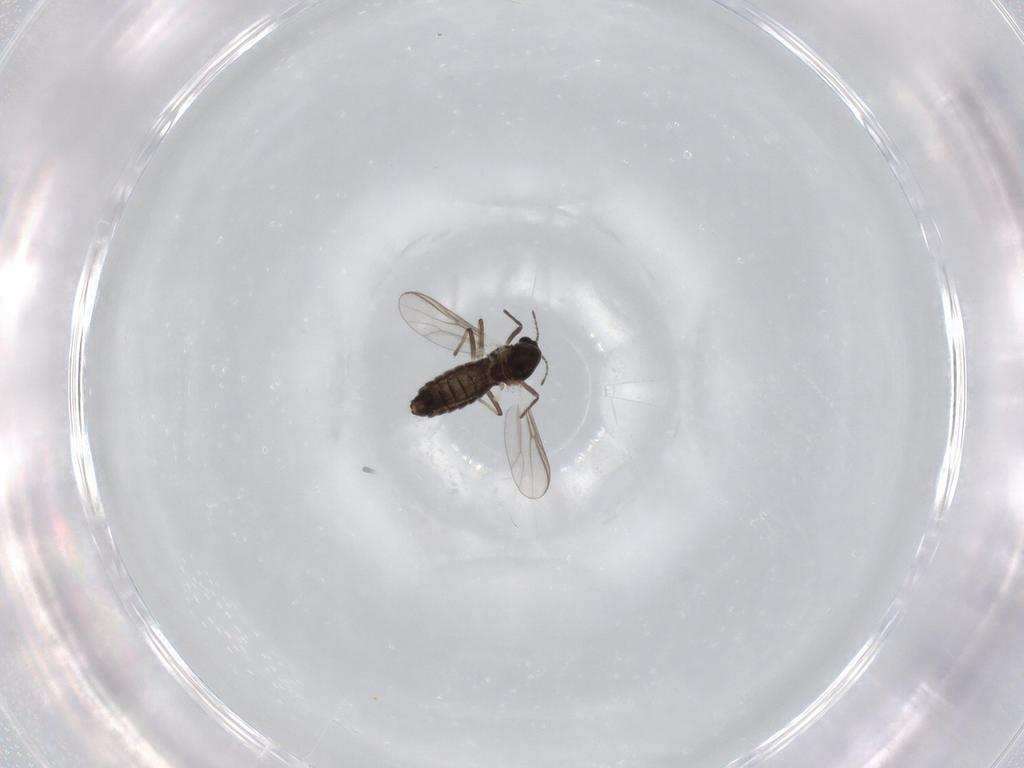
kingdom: Animalia
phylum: Arthropoda
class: Insecta
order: Diptera
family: Chironomidae
